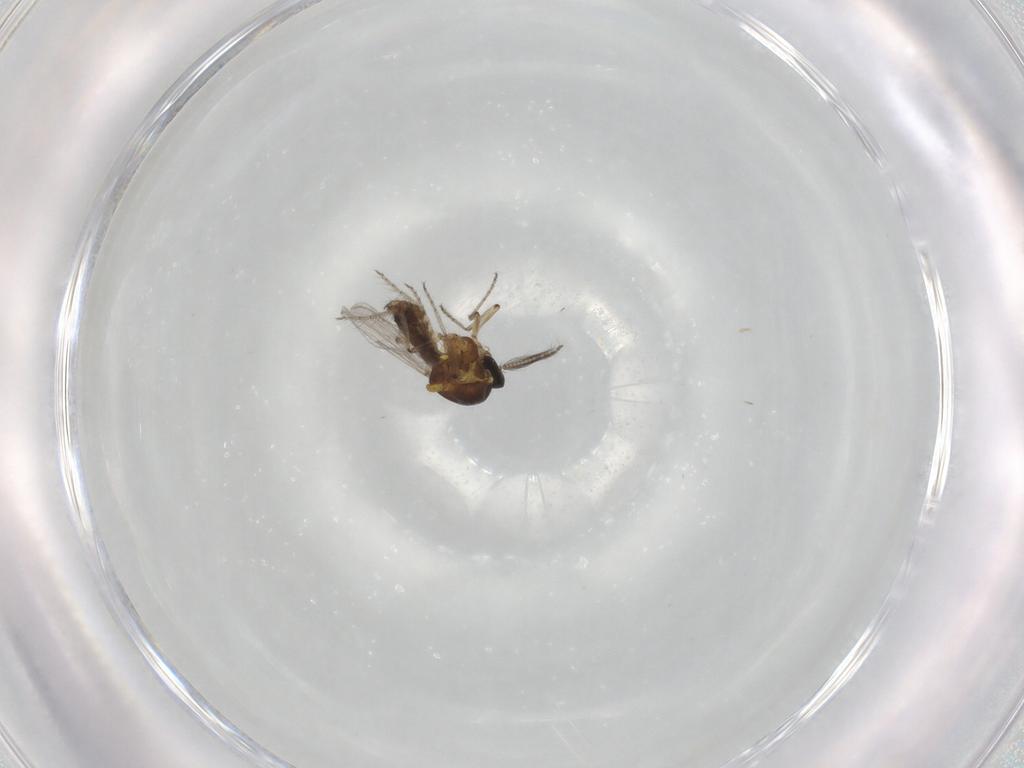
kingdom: Animalia
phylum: Arthropoda
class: Insecta
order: Diptera
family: Ceratopogonidae
